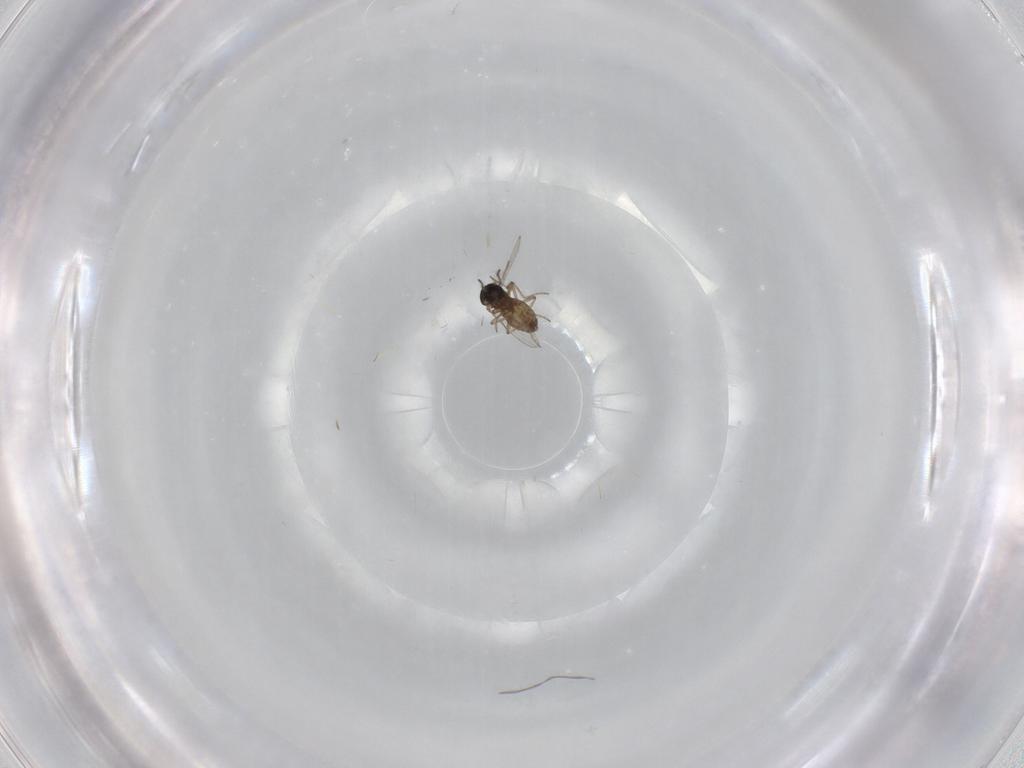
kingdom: Animalia
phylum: Arthropoda
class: Insecta
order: Diptera
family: Ceratopogonidae
